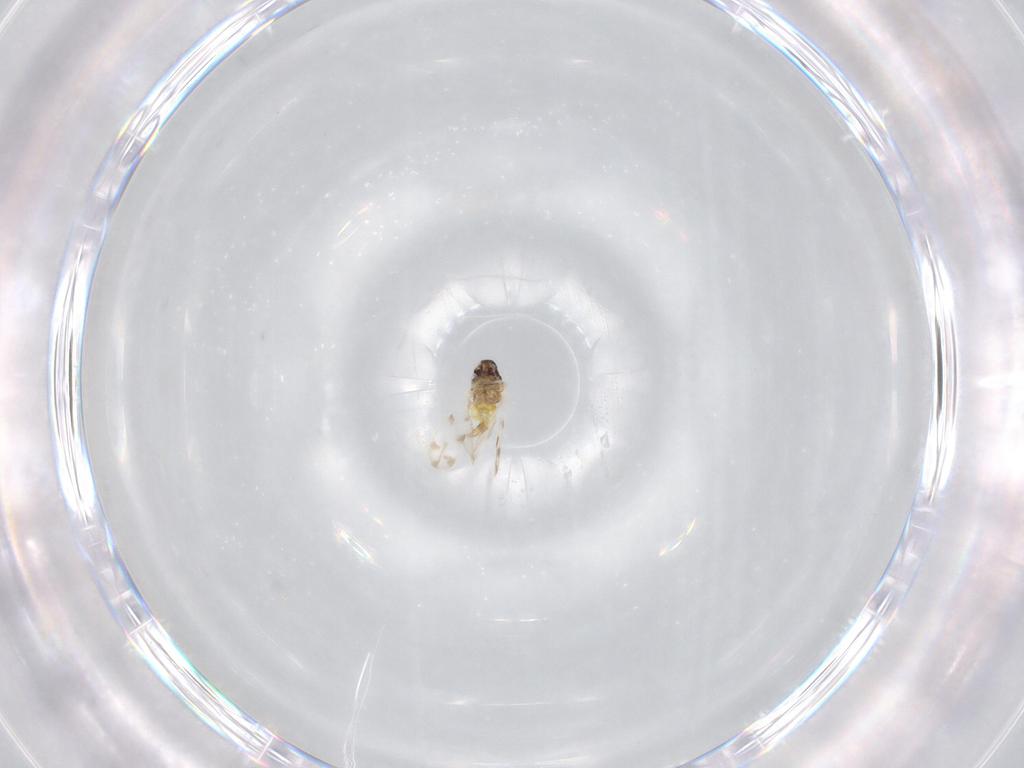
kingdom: Animalia
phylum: Arthropoda
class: Insecta
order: Hemiptera
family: Aleyrodidae
